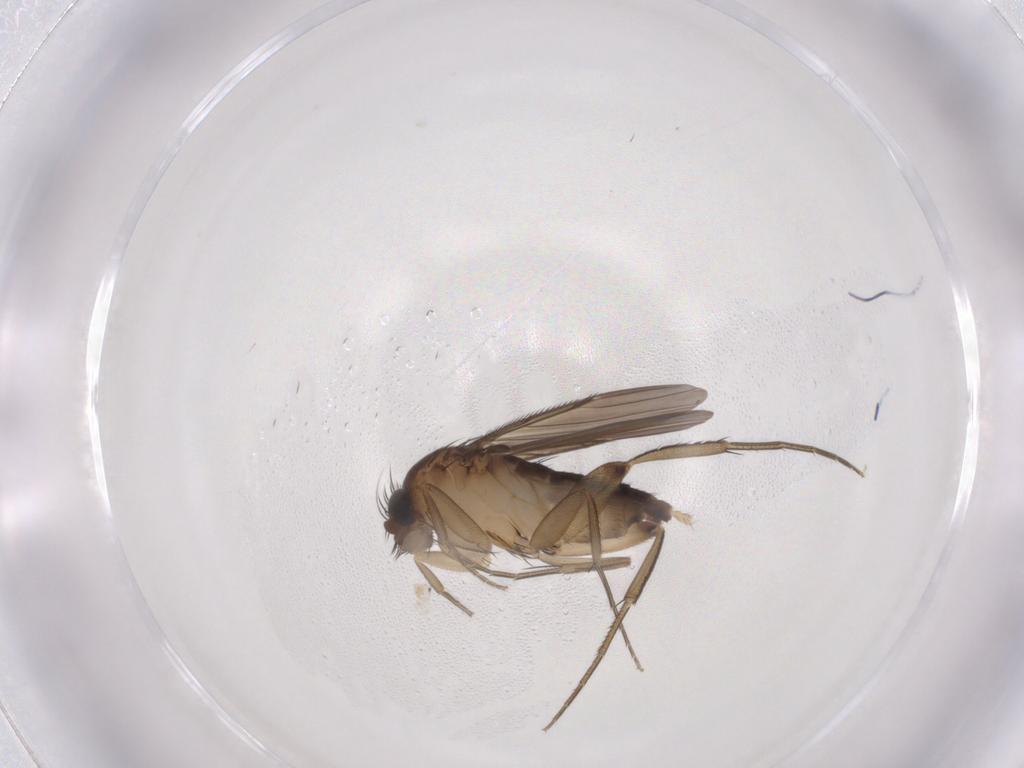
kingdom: Animalia
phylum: Arthropoda
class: Insecta
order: Diptera
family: Phoridae
